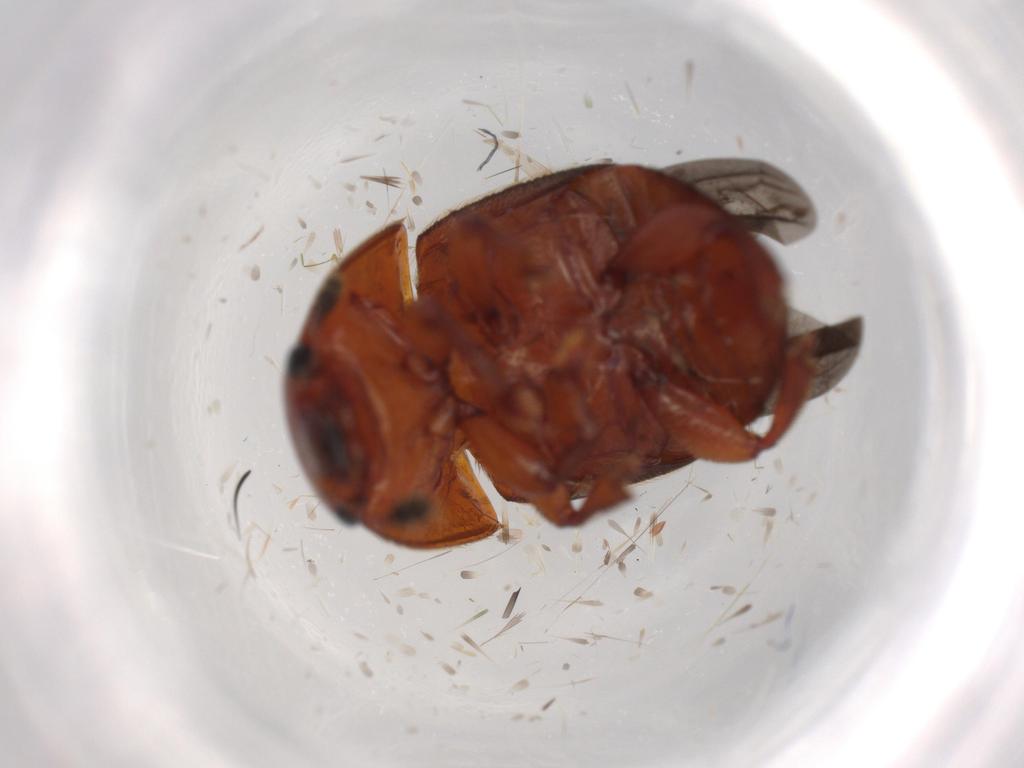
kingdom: Animalia
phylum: Arthropoda
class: Insecta
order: Coleoptera
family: Nitidulidae
